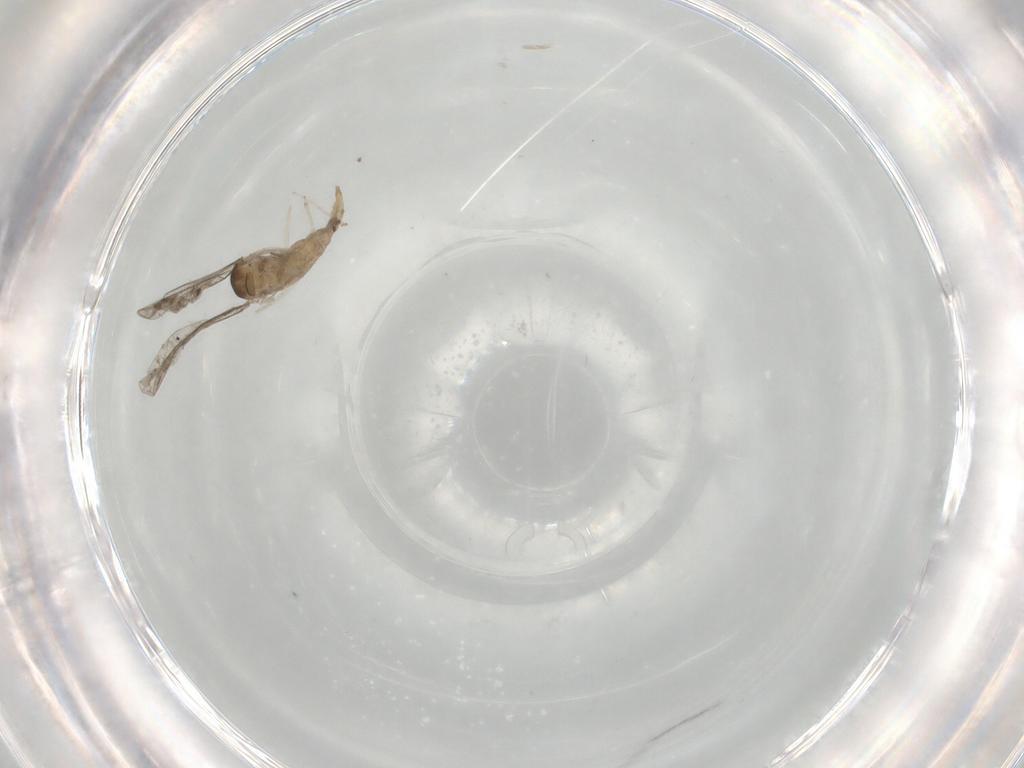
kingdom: Animalia
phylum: Arthropoda
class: Insecta
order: Diptera
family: Cecidomyiidae
